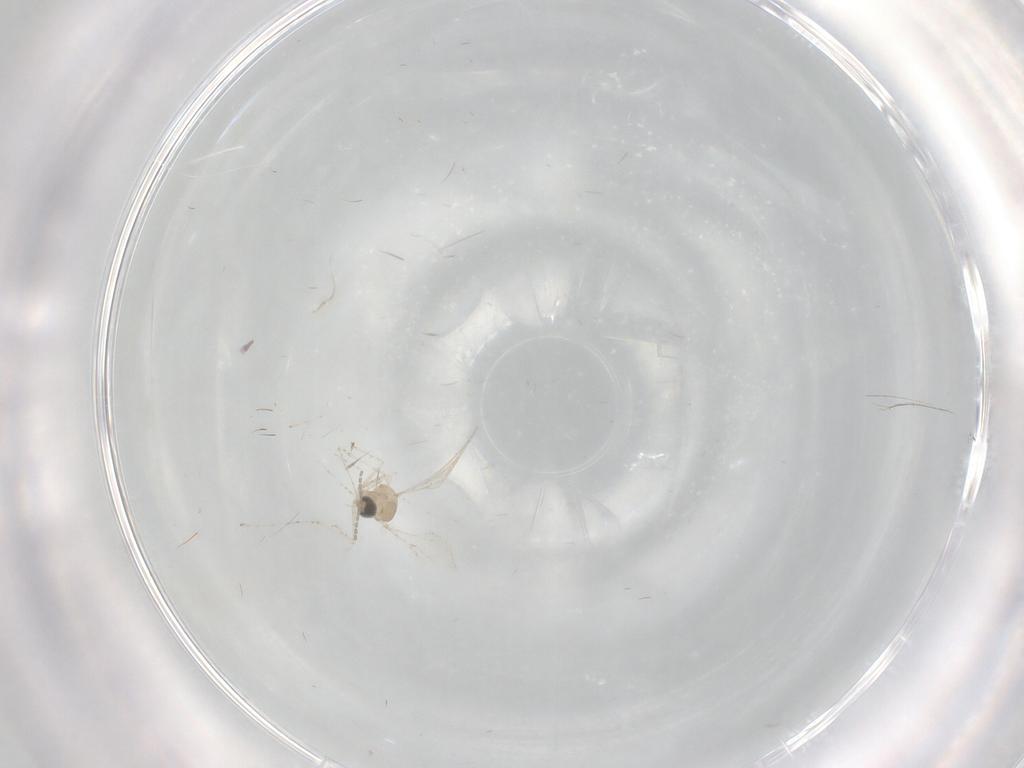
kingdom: Animalia
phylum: Arthropoda
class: Insecta
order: Diptera
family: Cecidomyiidae
